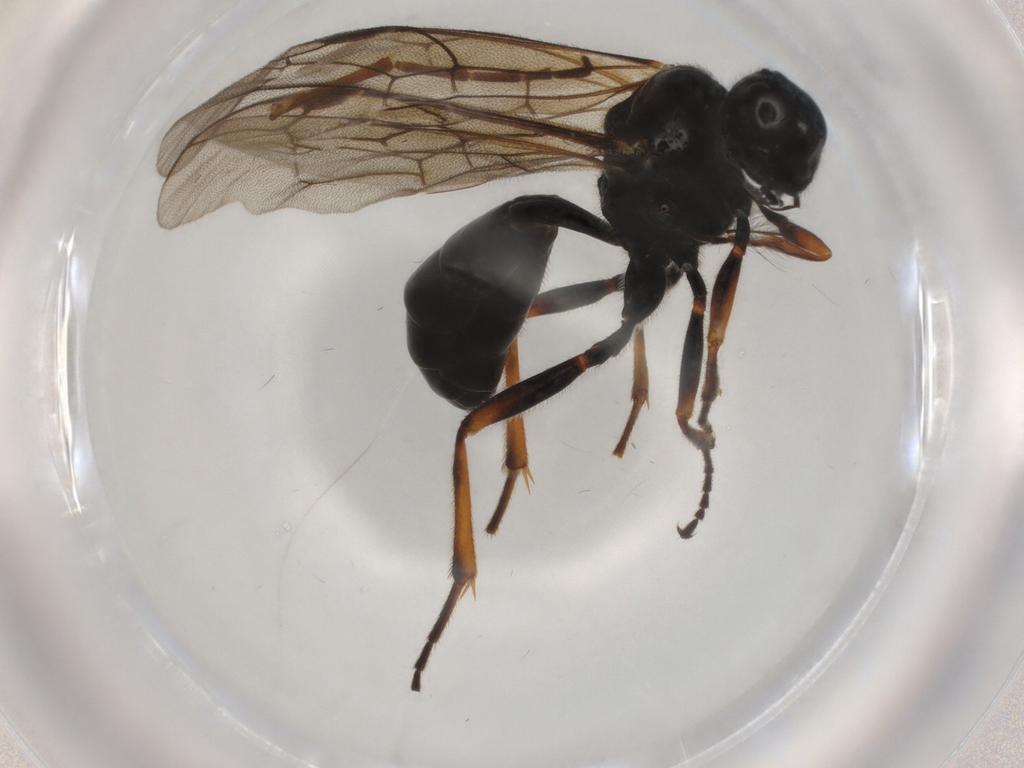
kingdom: Animalia
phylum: Arthropoda
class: Insecta
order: Hymenoptera
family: Ichneumonidae
